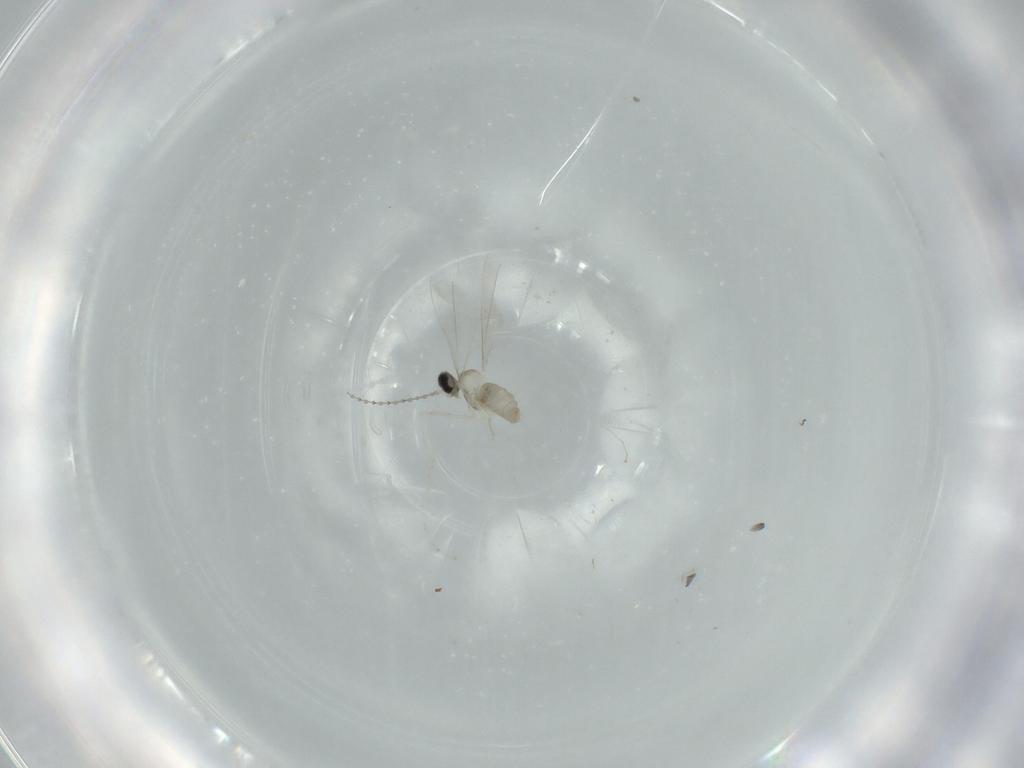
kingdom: Animalia
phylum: Arthropoda
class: Insecta
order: Diptera
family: Cecidomyiidae
